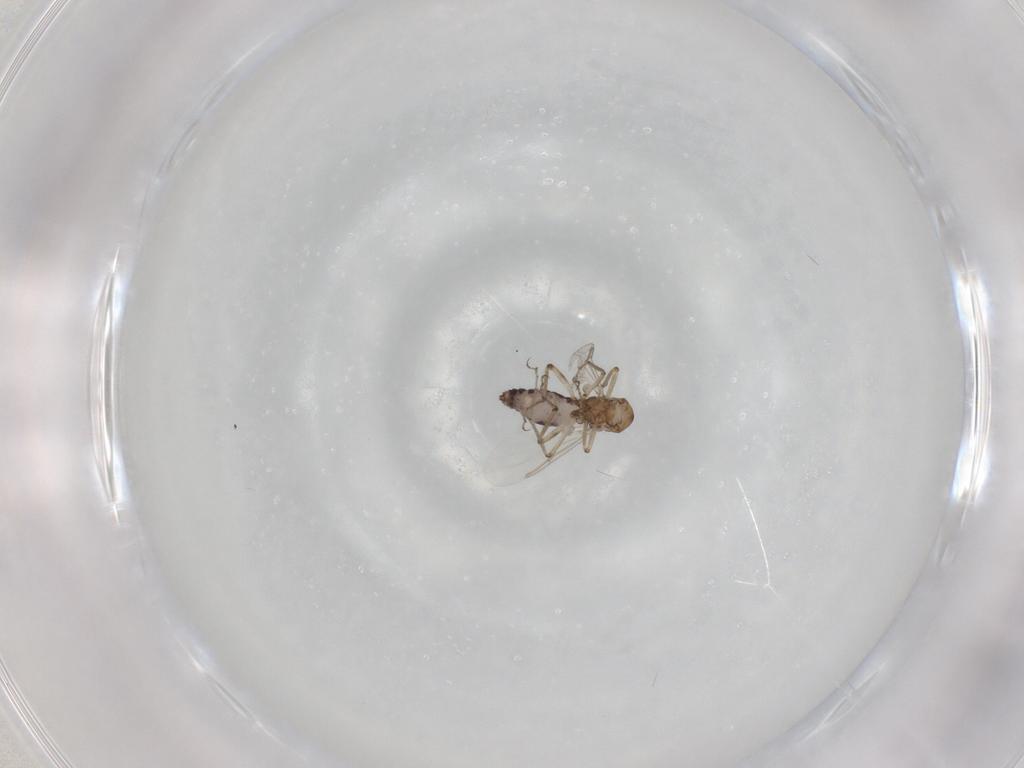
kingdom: Animalia
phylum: Arthropoda
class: Insecta
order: Diptera
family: Ceratopogonidae
